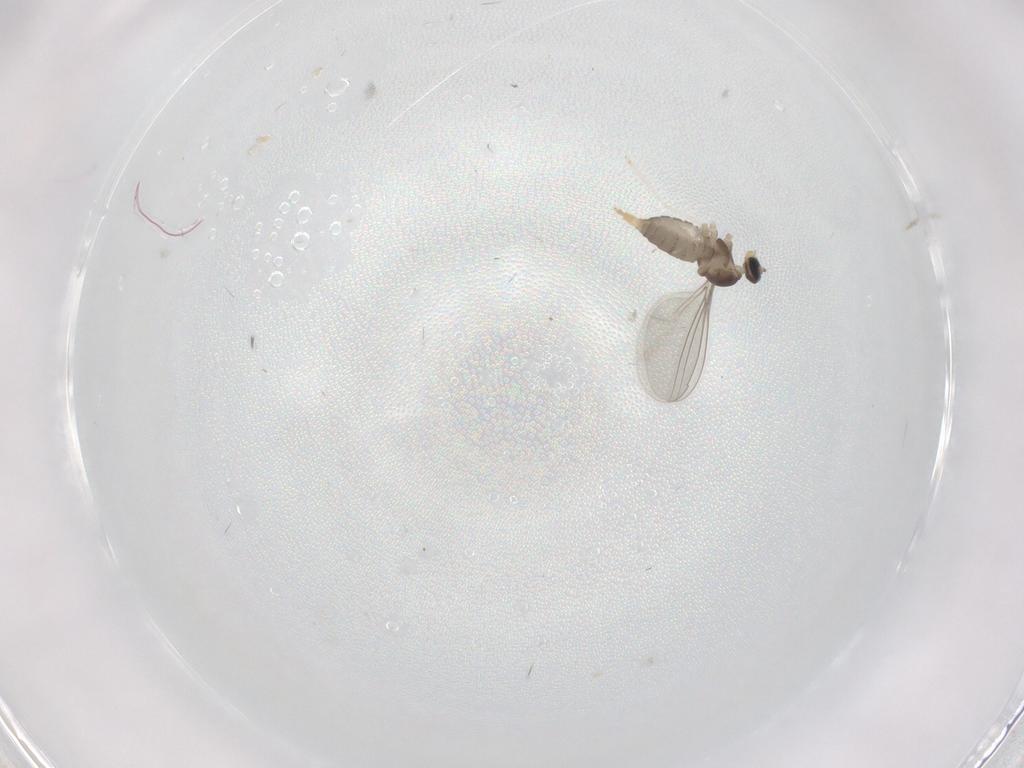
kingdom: Animalia
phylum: Arthropoda
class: Insecta
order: Diptera
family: Cecidomyiidae
